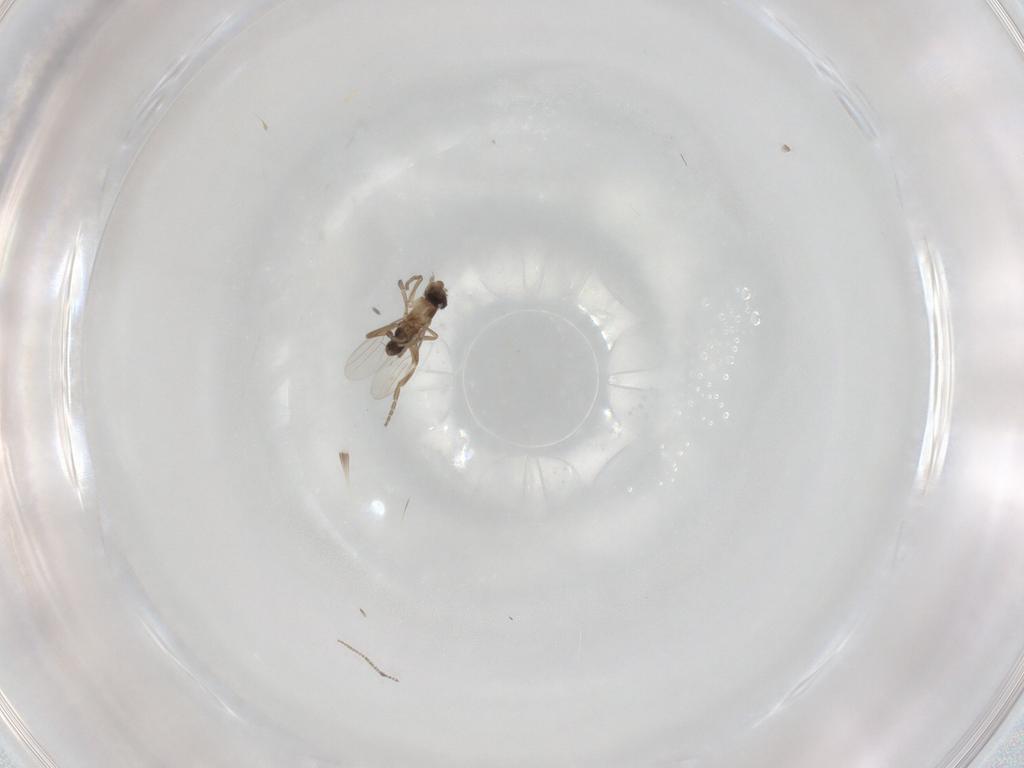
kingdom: Animalia
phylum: Arthropoda
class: Insecta
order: Diptera
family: Cecidomyiidae
